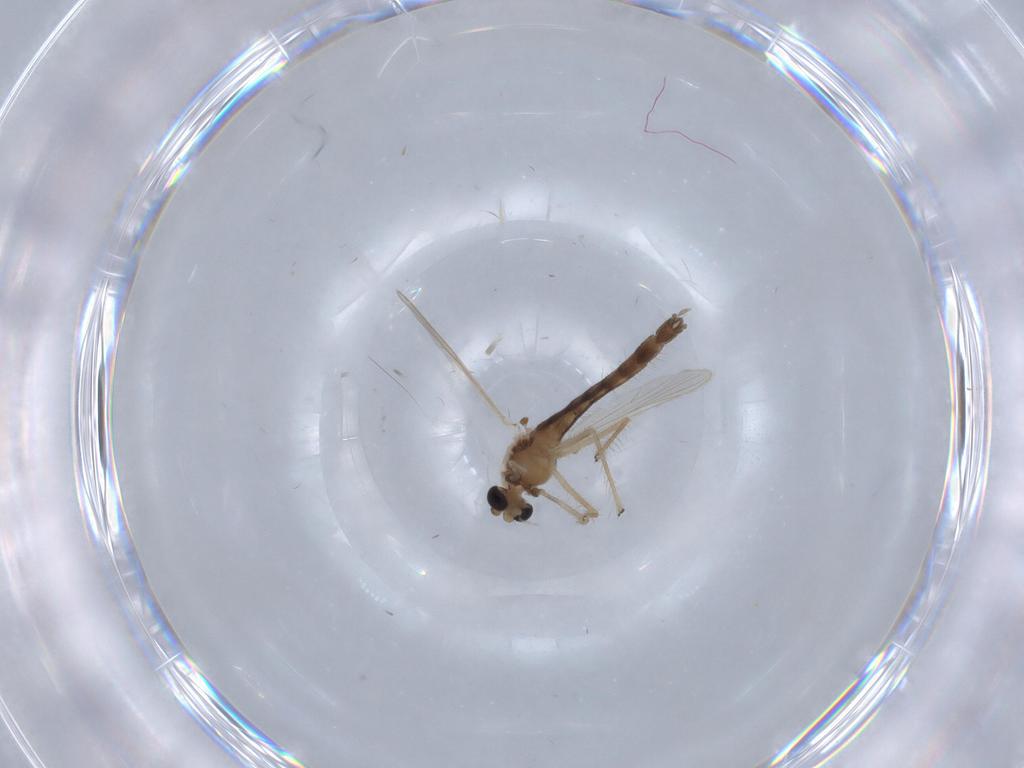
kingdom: Animalia
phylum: Arthropoda
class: Insecta
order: Diptera
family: Chironomidae
